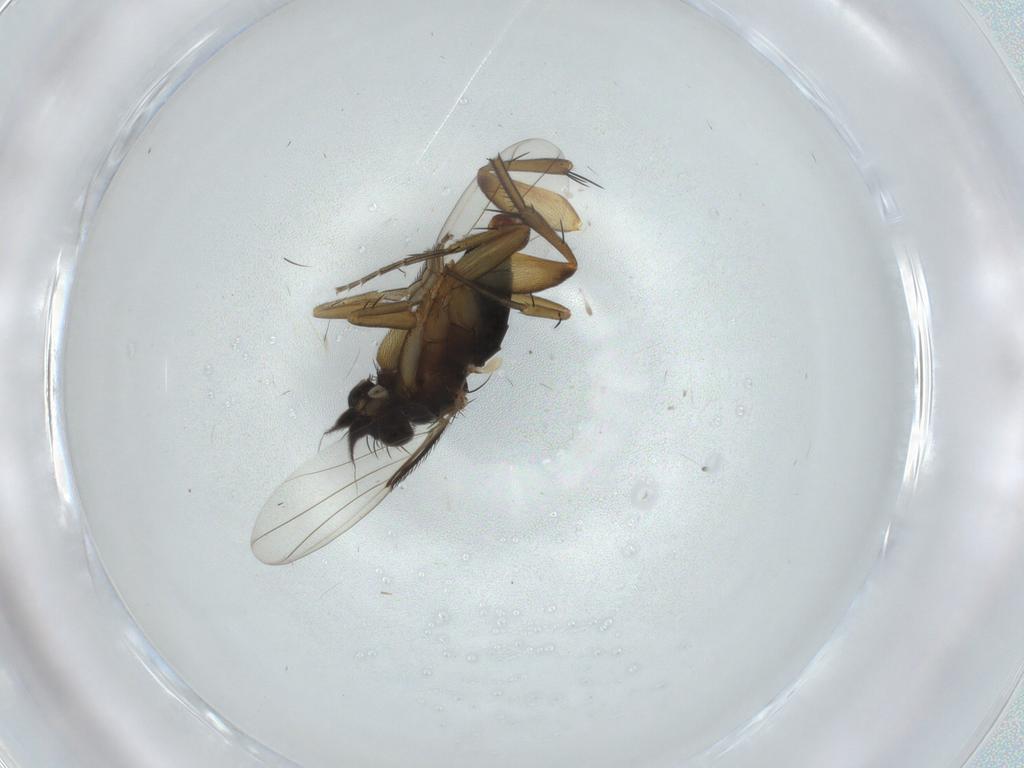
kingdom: Animalia
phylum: Arthropoda
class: Insecta
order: Diptera
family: Phoridae
